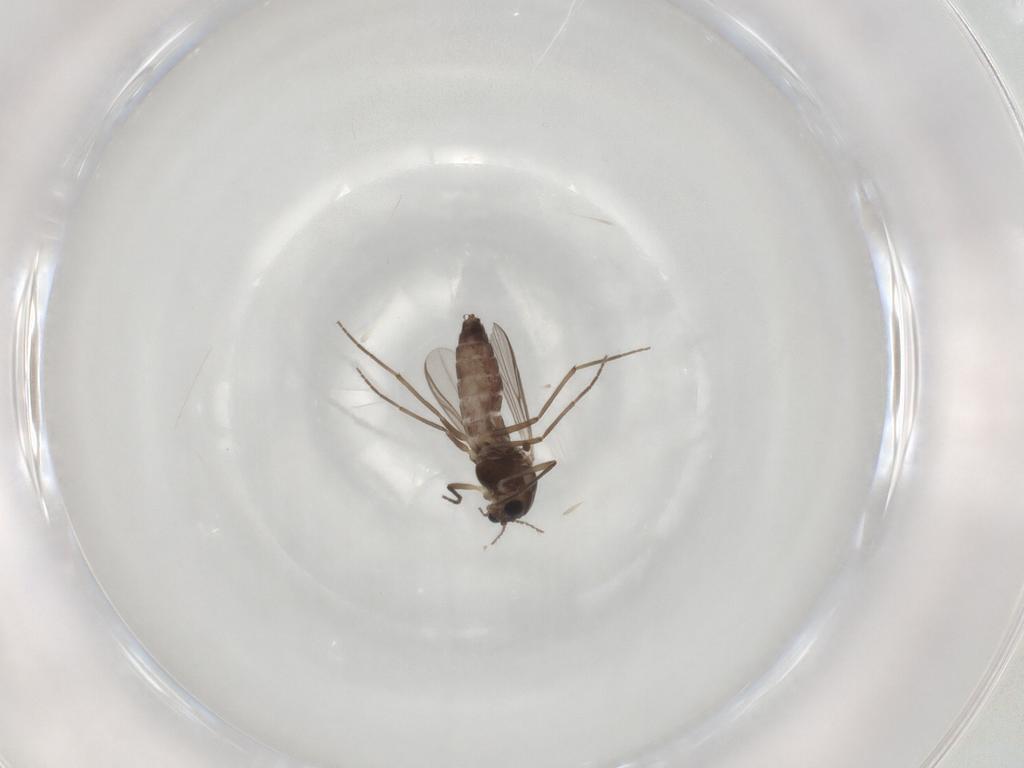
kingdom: Animalia
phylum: Arthropoda
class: Insecta
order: Diptera
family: Chironomidae
